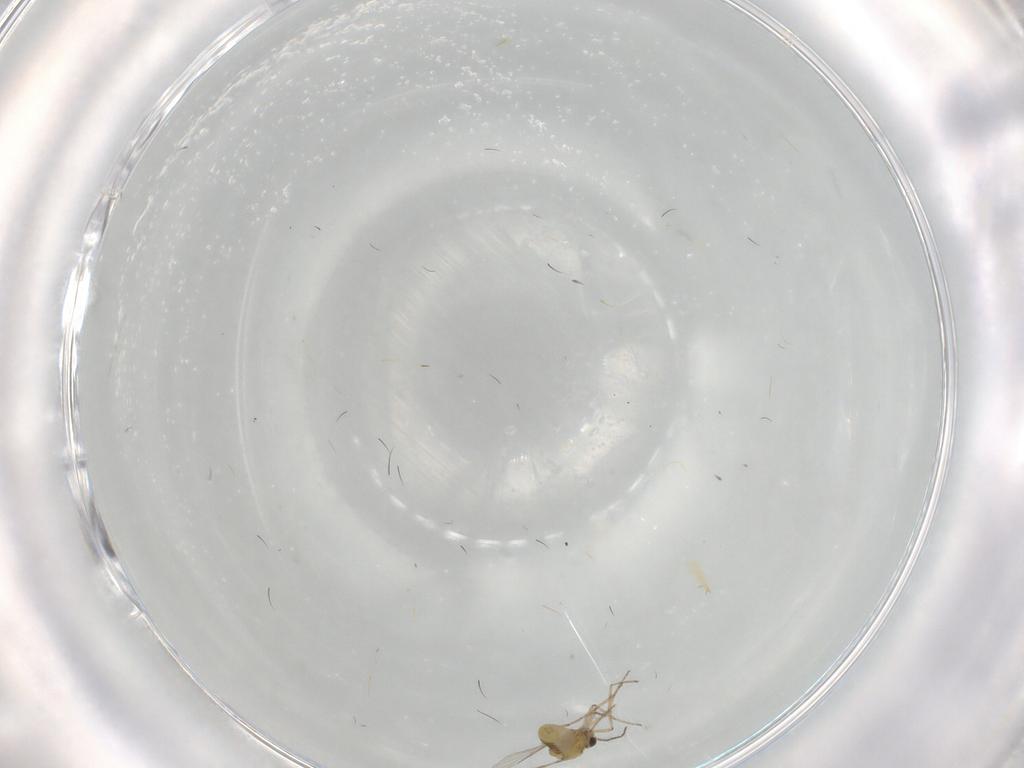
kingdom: Animalia
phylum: Arthropoda
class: Insecta
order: Diptera
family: Ceratopogonidae
